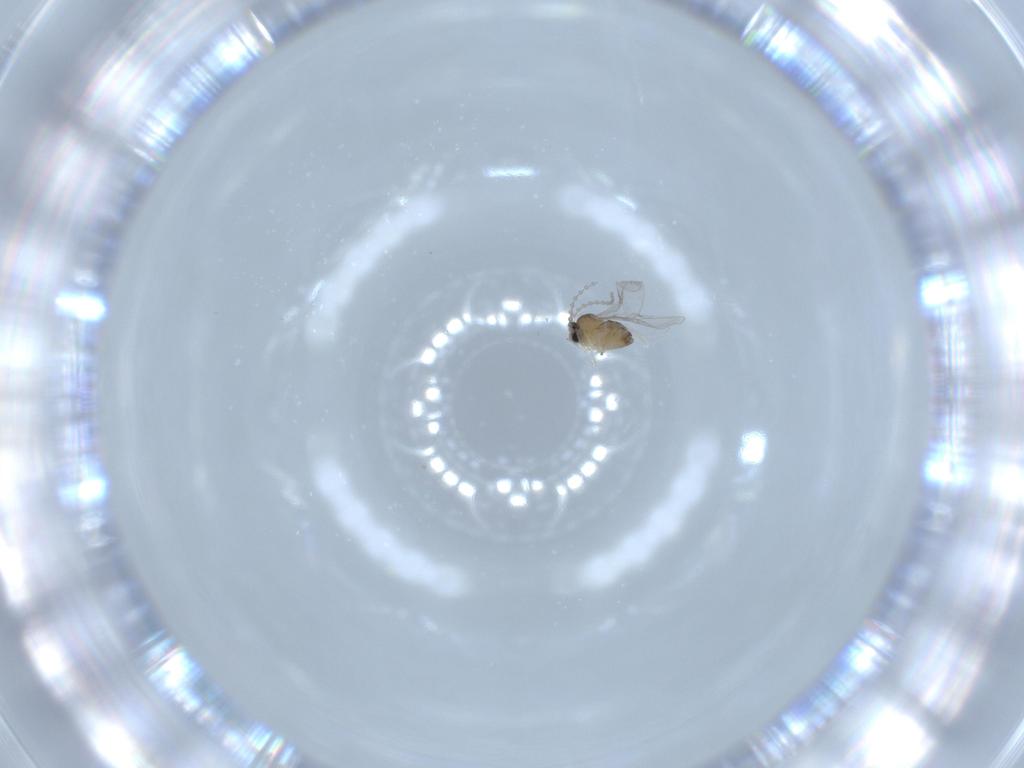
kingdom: Animalia
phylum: Arthropoda
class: Insecta
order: Diptera
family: Cecidomyiidae
